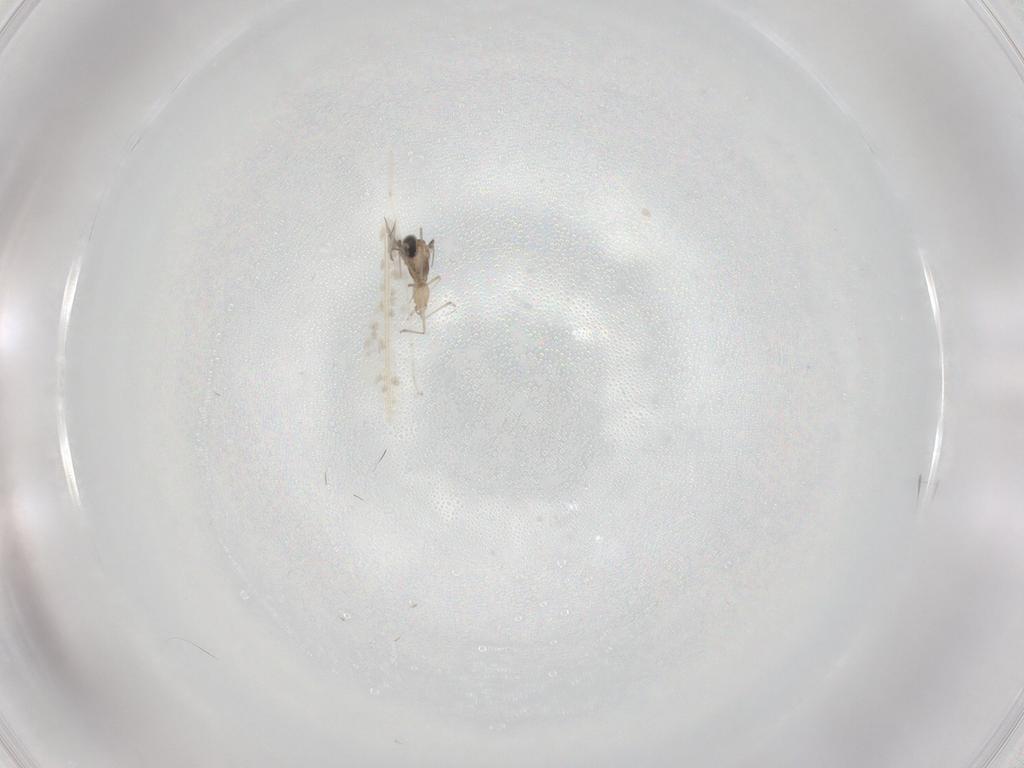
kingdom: Animalia
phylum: Arthropoda
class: Insecta
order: Diptera
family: Cecidomyiidae
